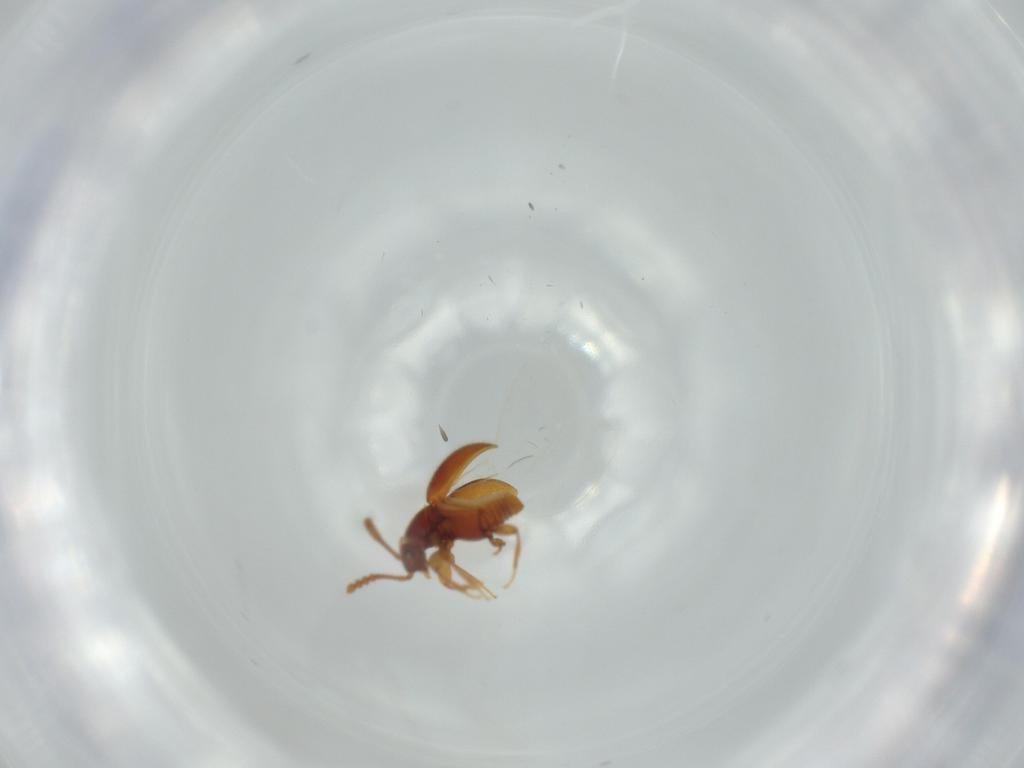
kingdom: Animalia
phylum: Arthropoda
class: Insecta
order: Coleoptera
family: Staphylinidae
